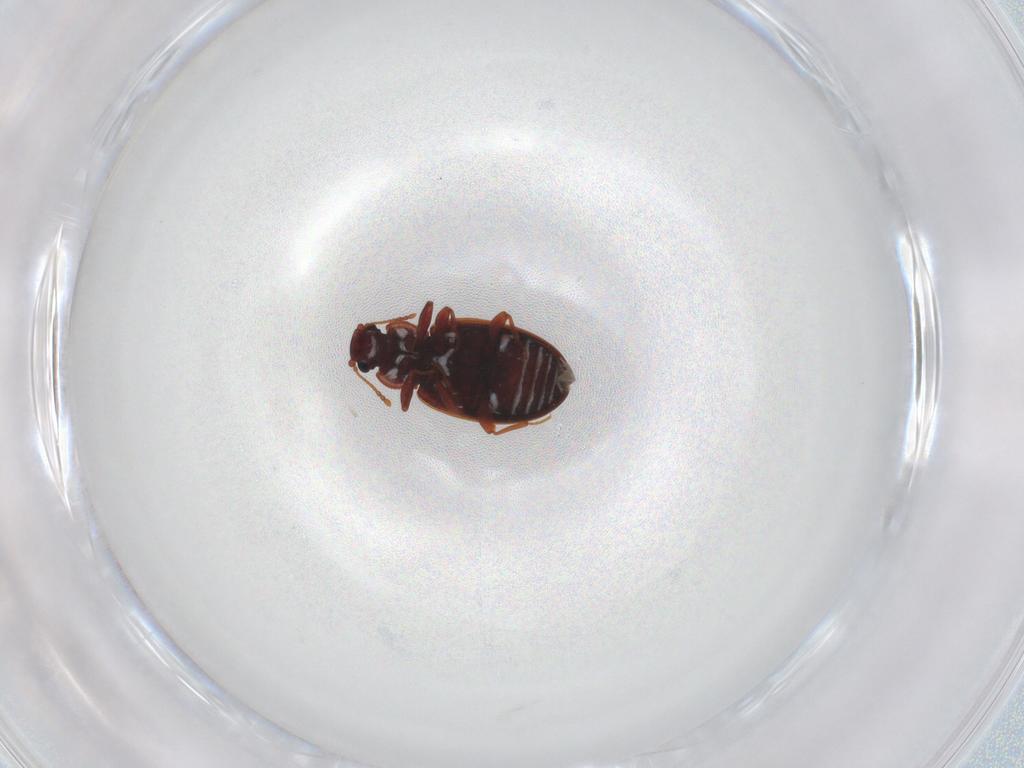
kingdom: Animalia
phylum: Arthropoda
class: Insecta
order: Coleoptera
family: Latridiidae
